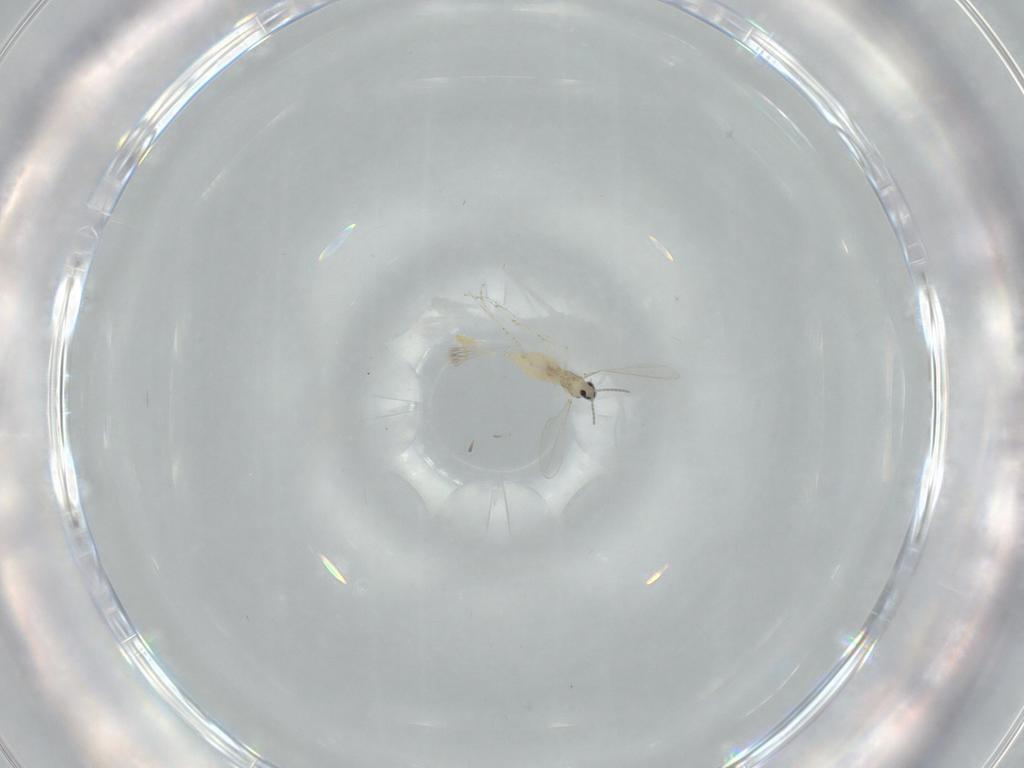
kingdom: Animalia
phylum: Arthropoda
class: Insecta
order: Diptera
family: Cecidomyiidae
